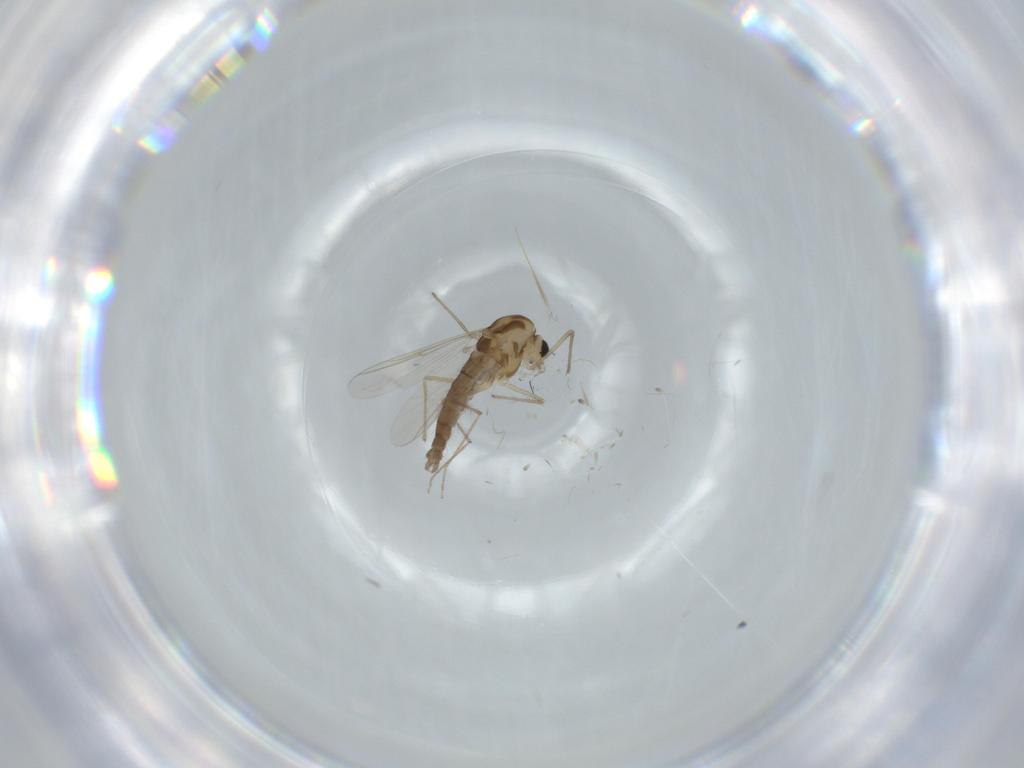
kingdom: Animalia
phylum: Arthropoda
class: Insecta
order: Diptera
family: Chironomidae
